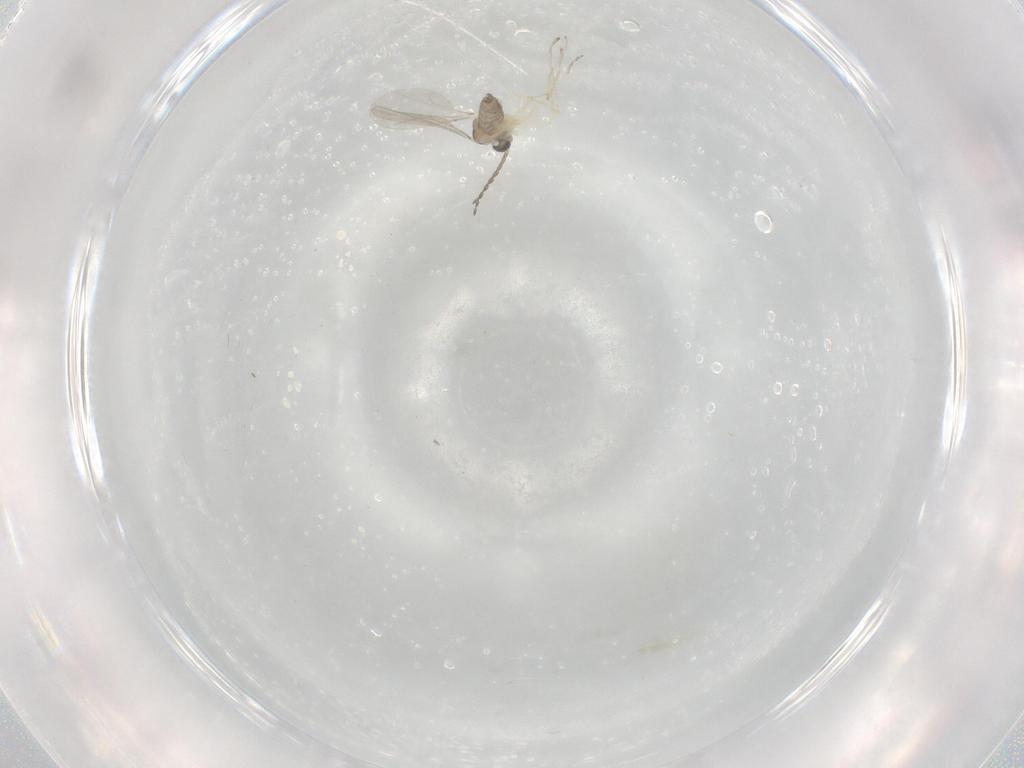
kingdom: Animalia
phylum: Arthropoda
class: Insecta
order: Diptera
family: Cecidomyiidae
